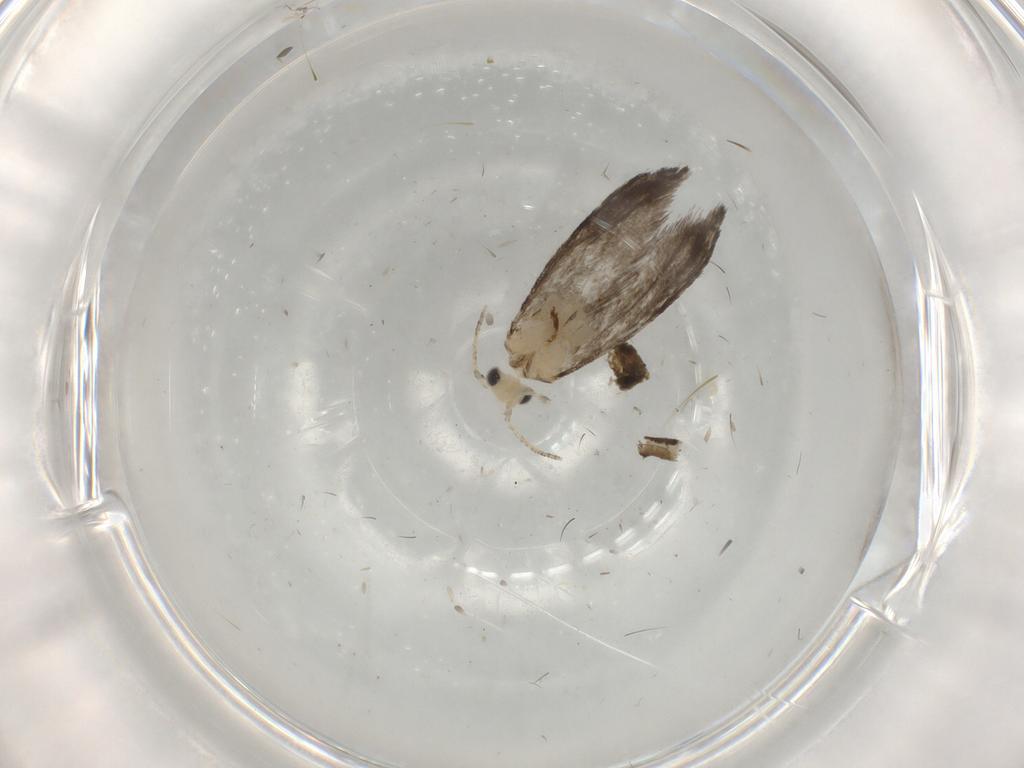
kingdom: Animalia
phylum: Arthropoda
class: Insecta
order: Lepidoptera
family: Tineidae
